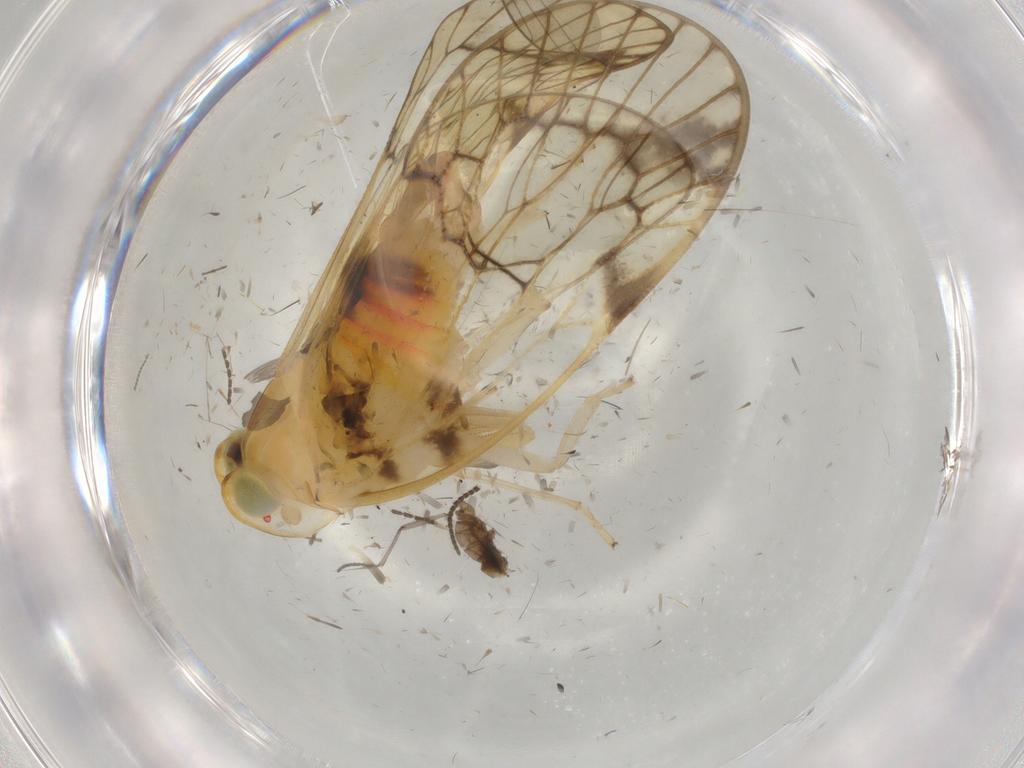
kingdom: Animalia
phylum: Arthropoda
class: Insecta
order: Hemiptera
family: Cixiidae
